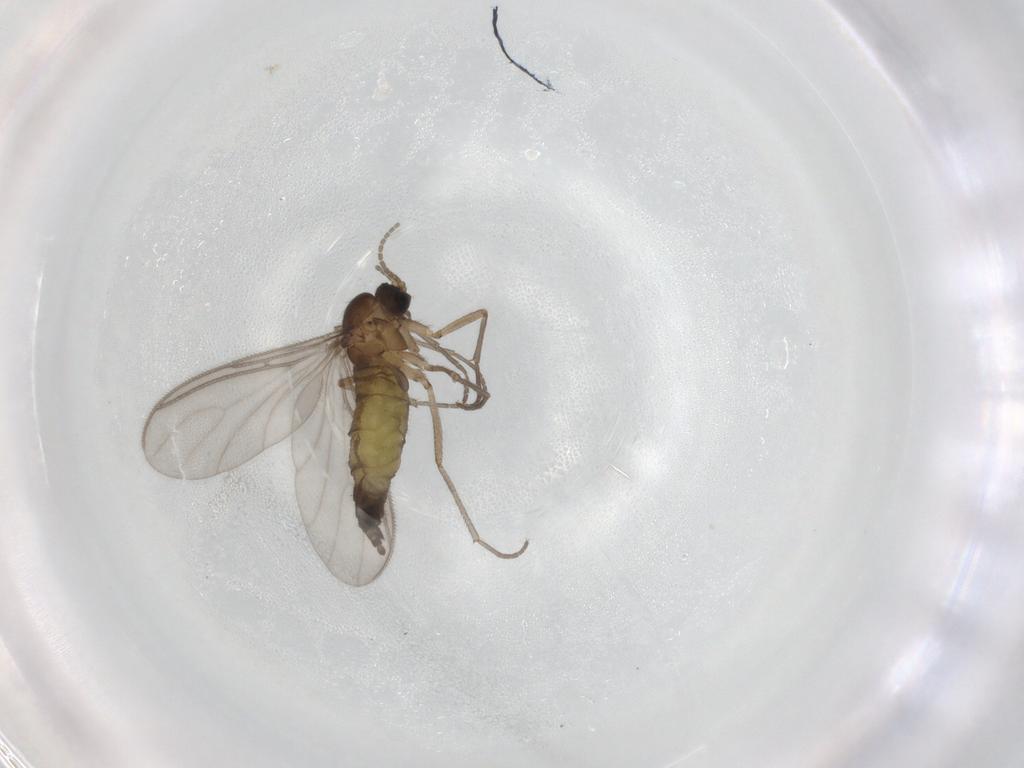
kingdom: Animalia
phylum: Arthropoda
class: Insecta
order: Diptera
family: Sciaridae
